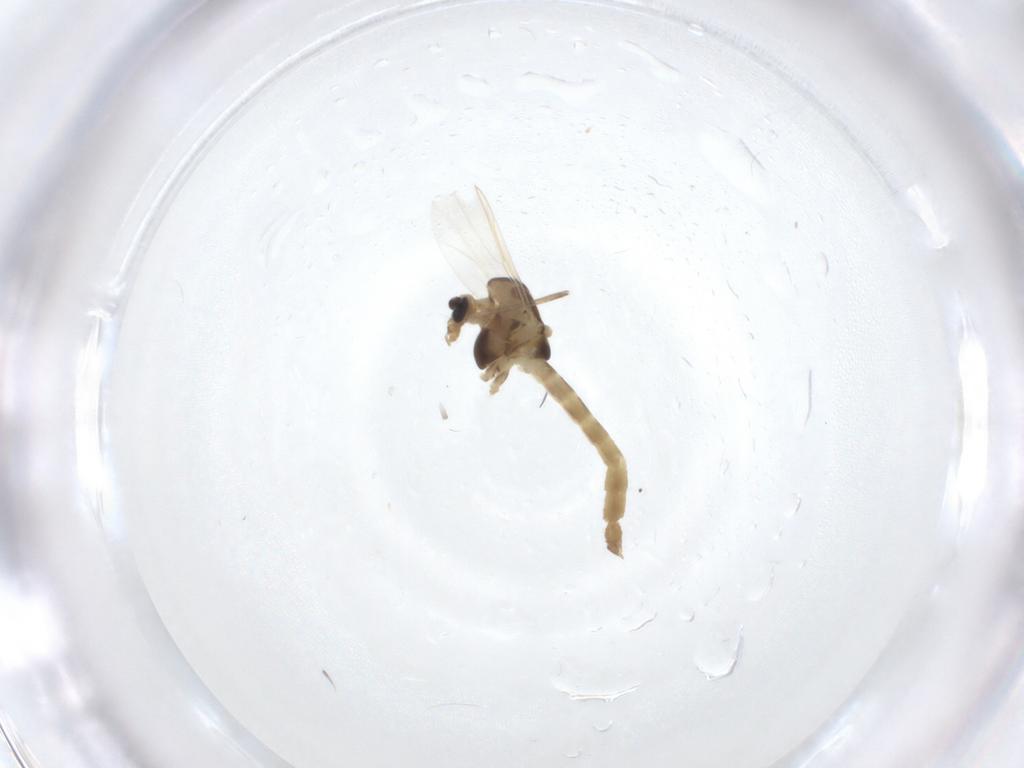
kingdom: Animalia
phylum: Arthropoda
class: Insecta
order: Diptera
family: Chironomidae
